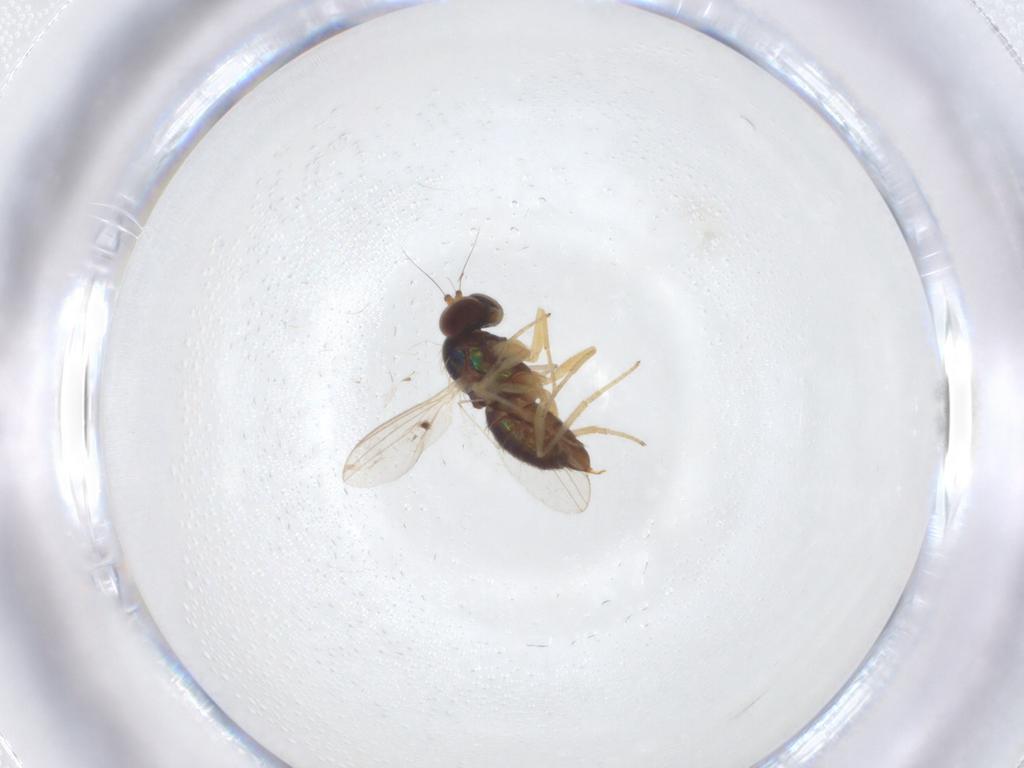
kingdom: Animalia
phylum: Arthropoda
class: Insecta
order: Diptera
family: Dolichopodidae
